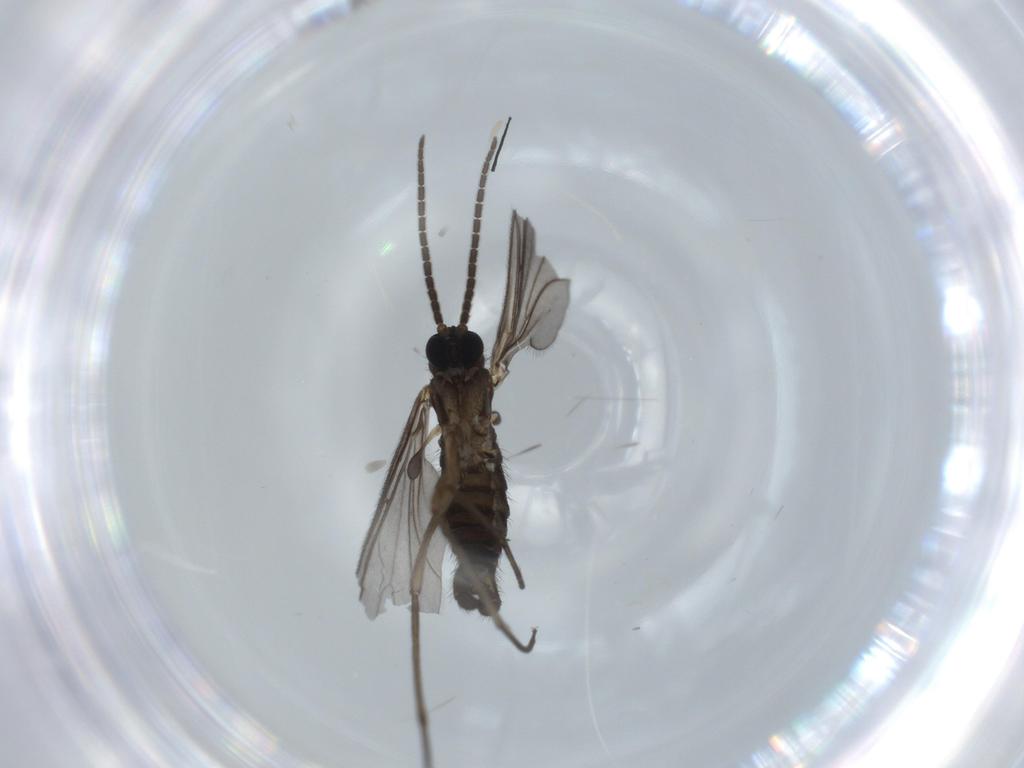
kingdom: Animalia
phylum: Arthropoda
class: Insecta
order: Diptera
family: Sciaridae
